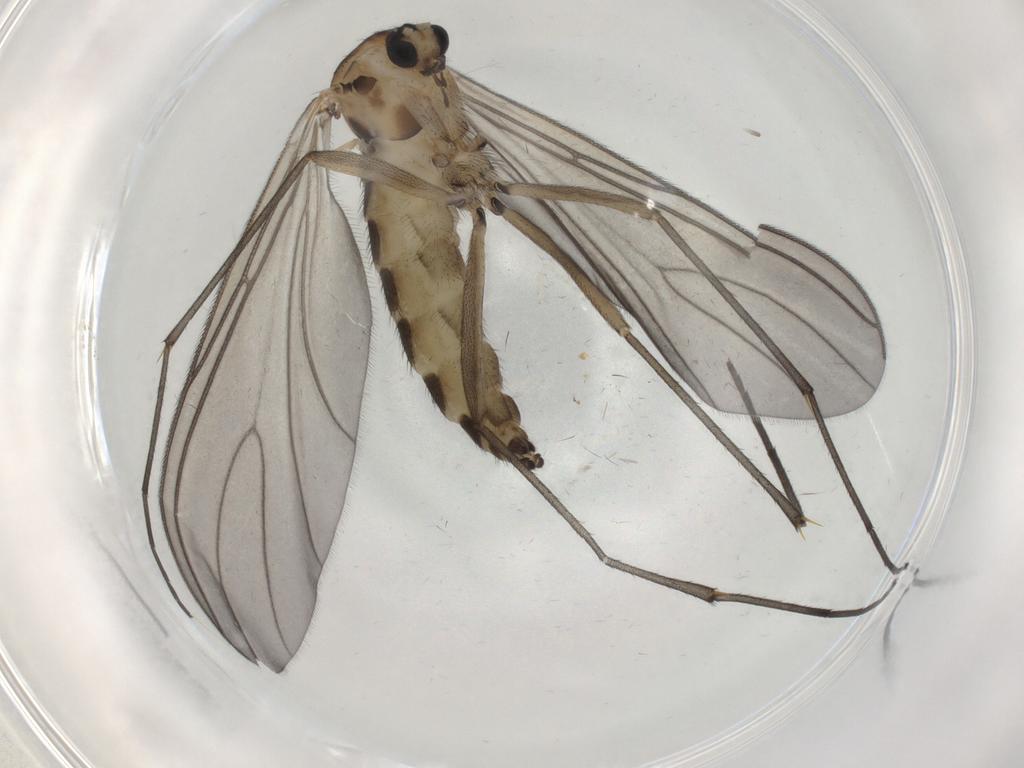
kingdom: Animalia
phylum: Arthropoda
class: Insecta
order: Diptera
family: Sciaridae
